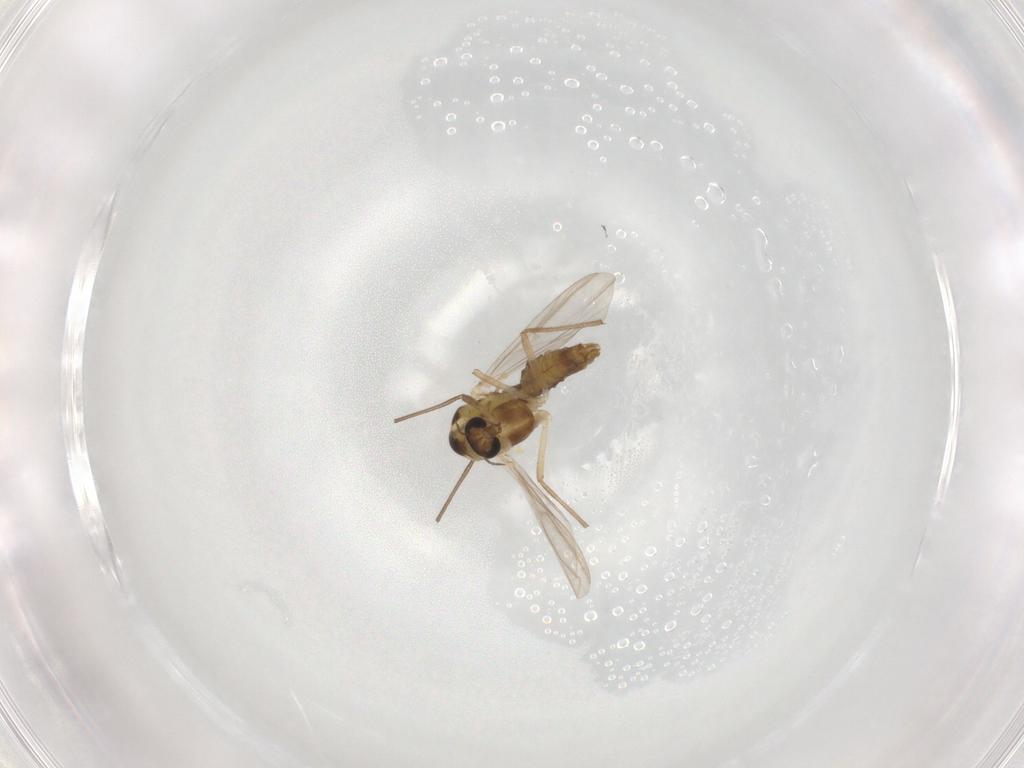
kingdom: Animalia
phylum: Arthropoda
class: Insecta
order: Diptera
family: Chironomidae
